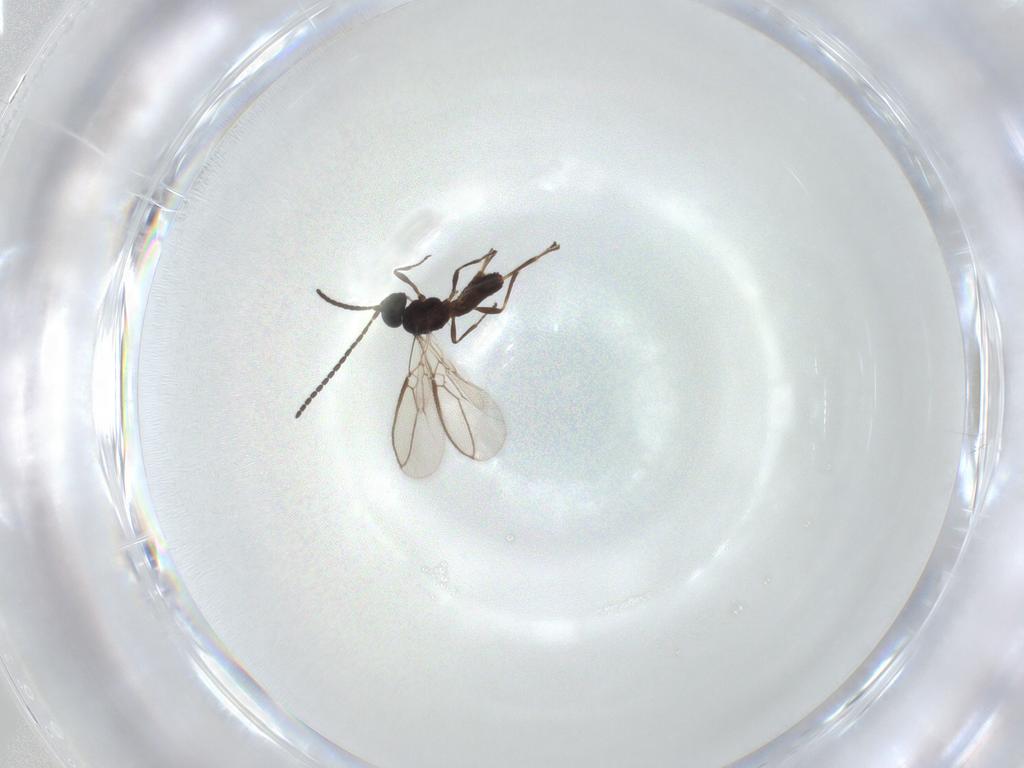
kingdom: Animalia
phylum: Arthropoda
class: Insecta
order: Hymenoptera
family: Braconidae
